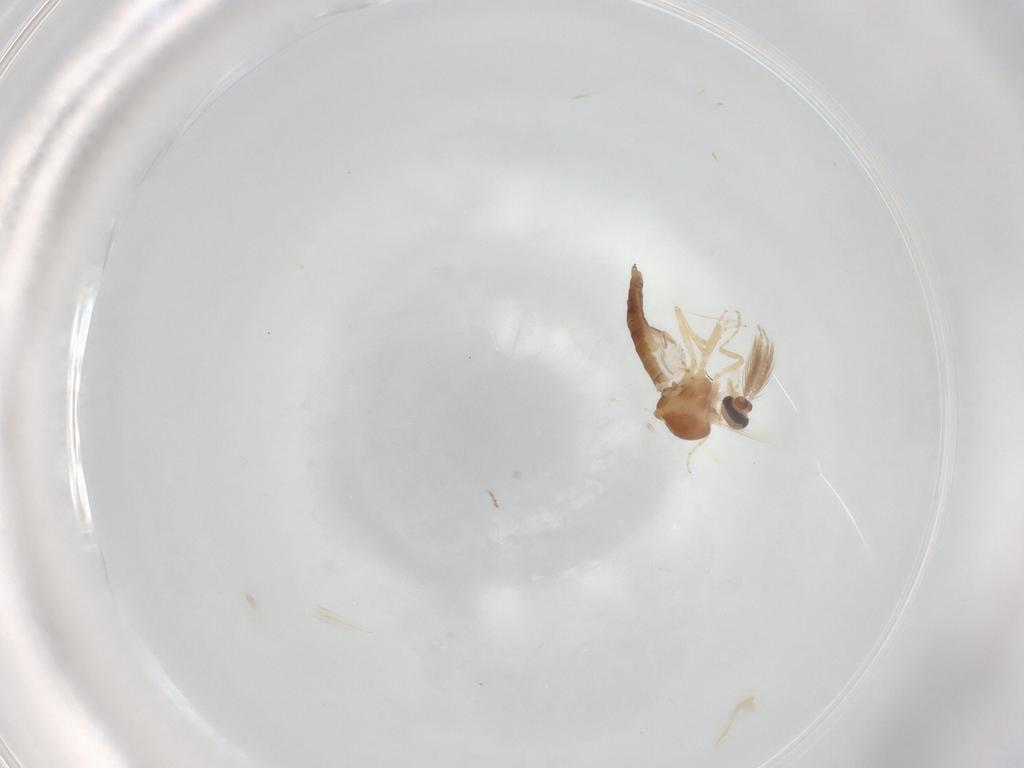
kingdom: Animalia
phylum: Arthropoda
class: Insecta
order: Diptera
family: Ceratopogonidae
